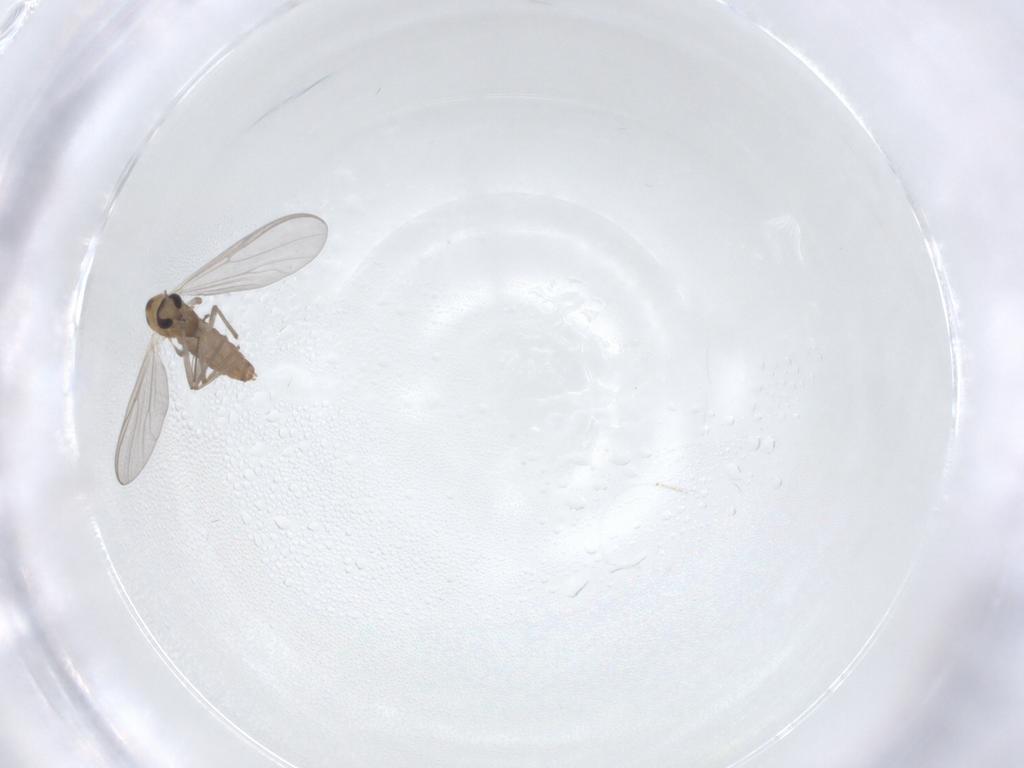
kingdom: Animalia
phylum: Arthropoda
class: Insecta
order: Diptera
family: Chironomidae
